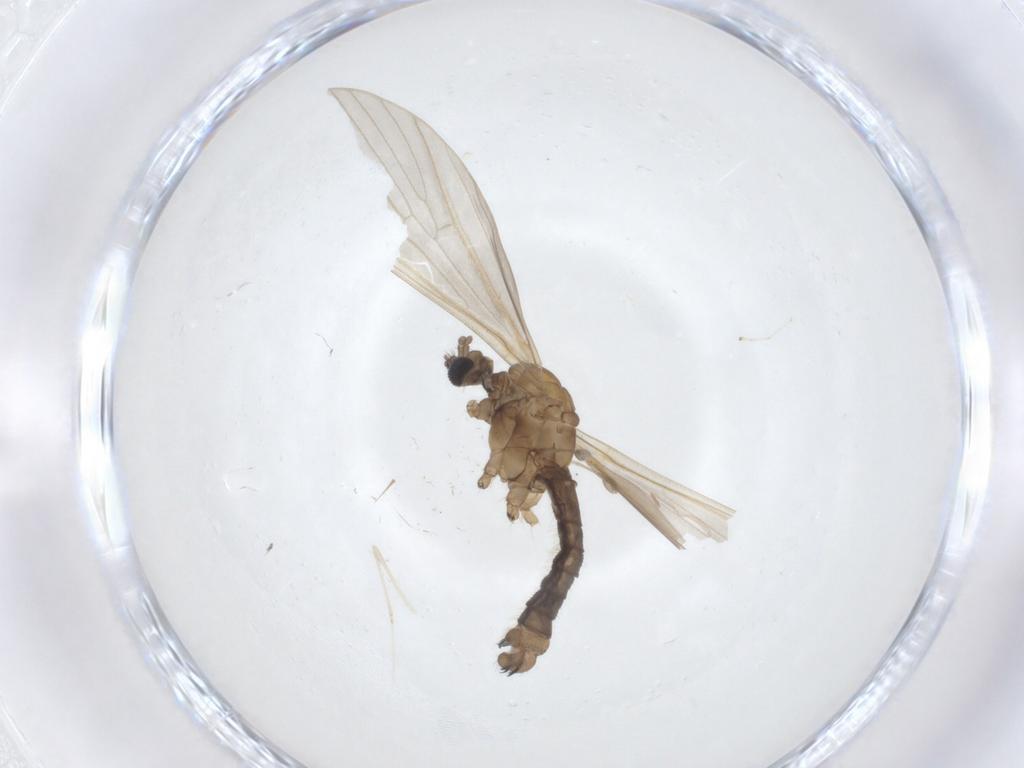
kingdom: Animalia
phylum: Arthropoda
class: Insecta
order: Diptera
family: Limoniidae
